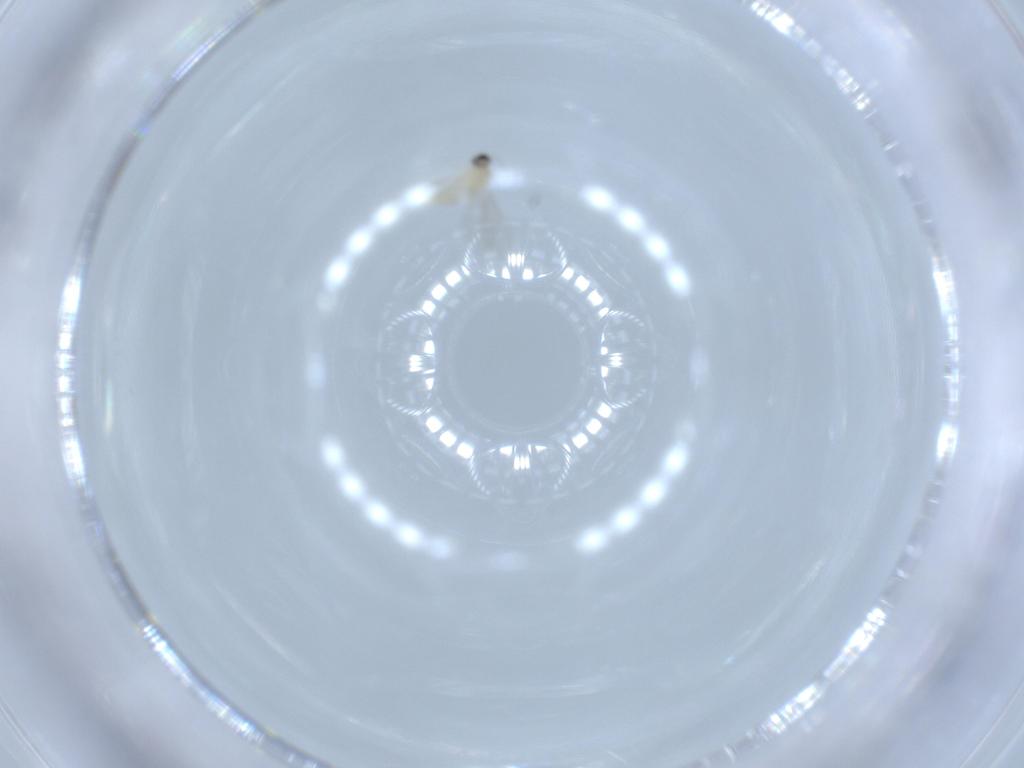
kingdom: Animalia
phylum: Arthropoda
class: Insecta
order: Diptera
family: Cecidomyiidae
